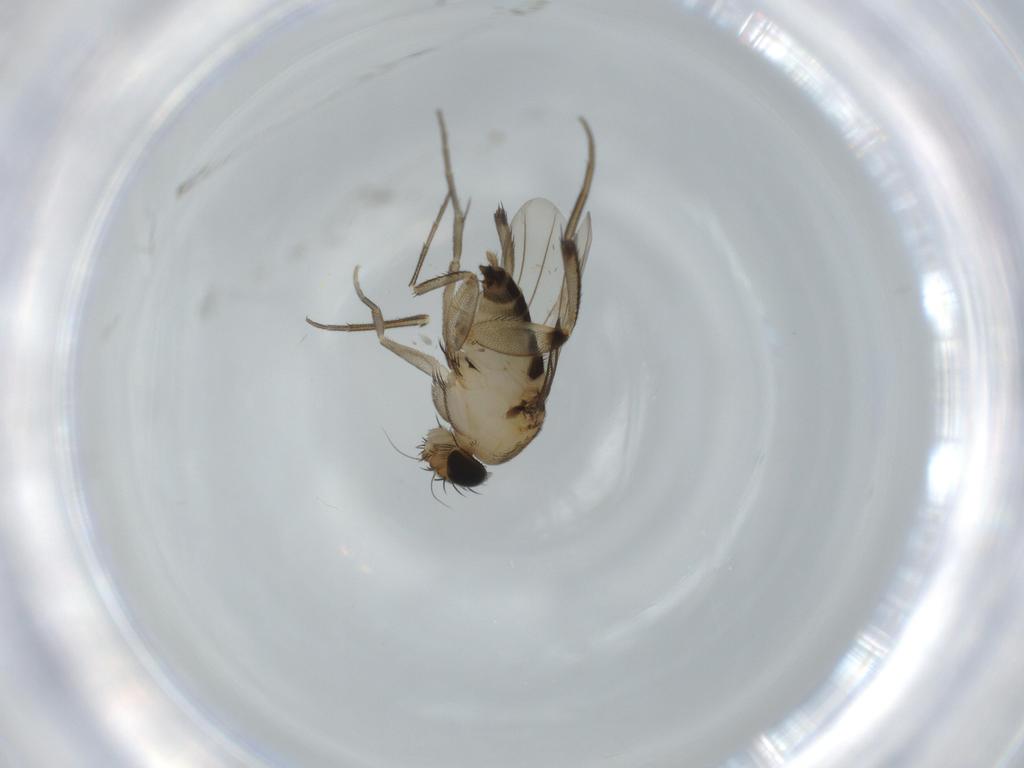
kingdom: Animalia
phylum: Arthropoda
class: Insecta
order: Diptera
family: Phoridae
